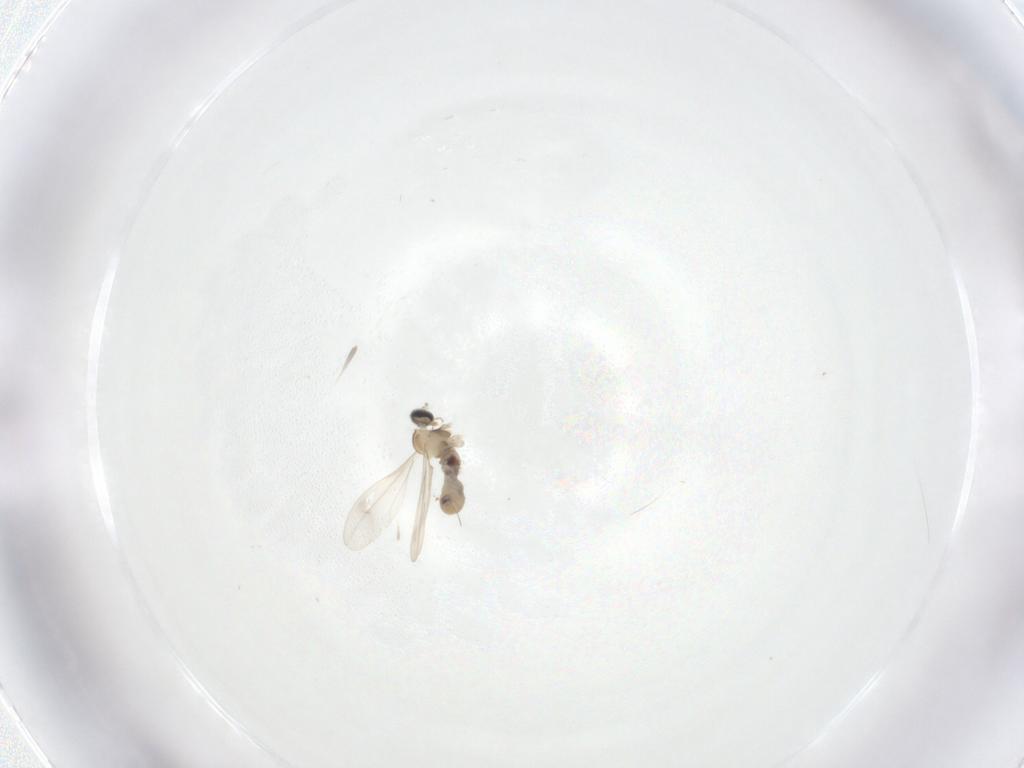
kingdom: Animalia
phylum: Arthropoda
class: Insecta
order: Diptera
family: Cecidomyiidae
